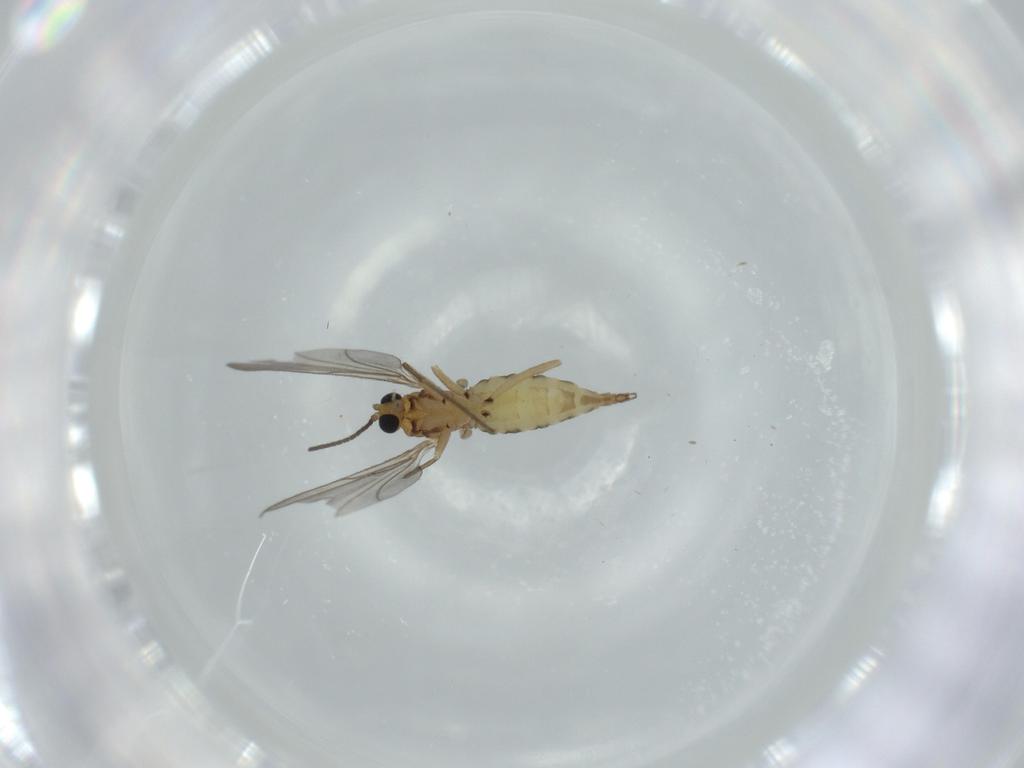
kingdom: Animalia
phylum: Arthropoda
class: Insecta
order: Diptera
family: Sciaridae
